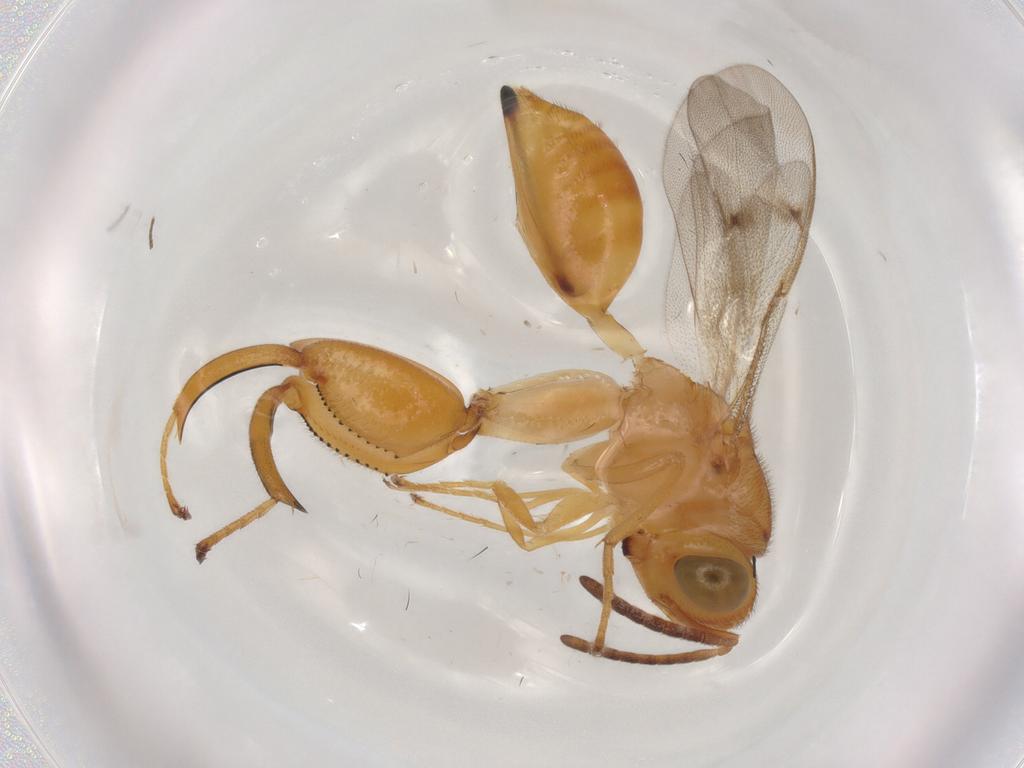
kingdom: Animalia
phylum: Arthropoda
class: Insecta
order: Hymenoptera
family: Chalcididae
